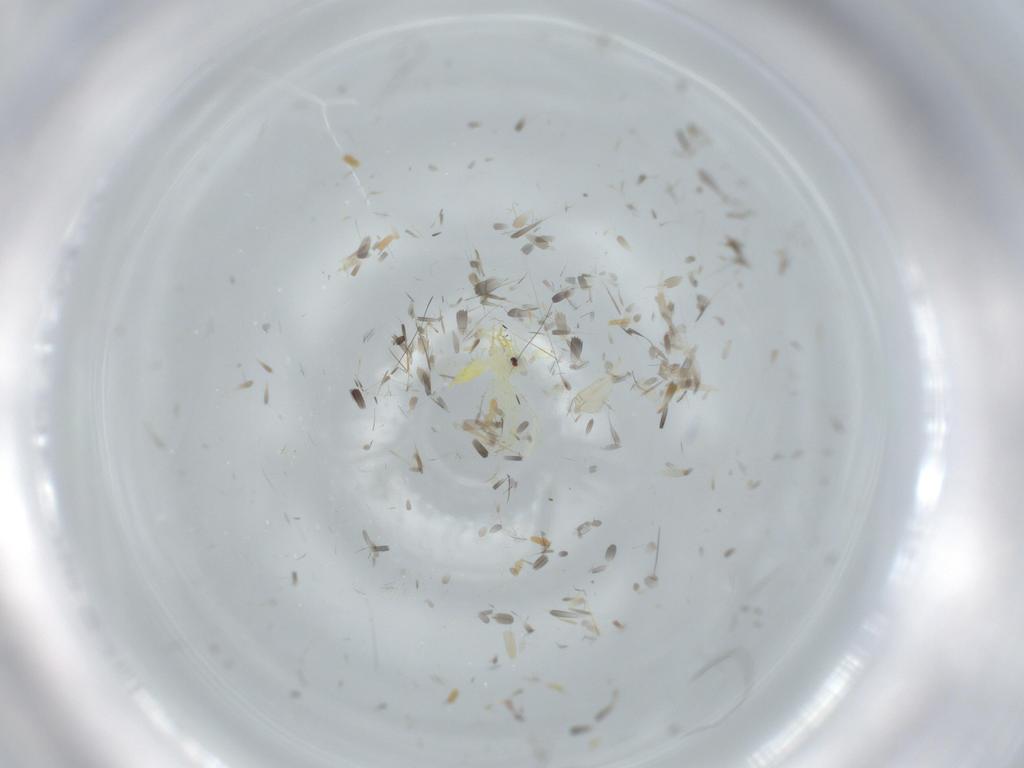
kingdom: Animalia
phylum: Arthropoda
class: Insecta
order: Hemiptera
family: Aleyrodidae
